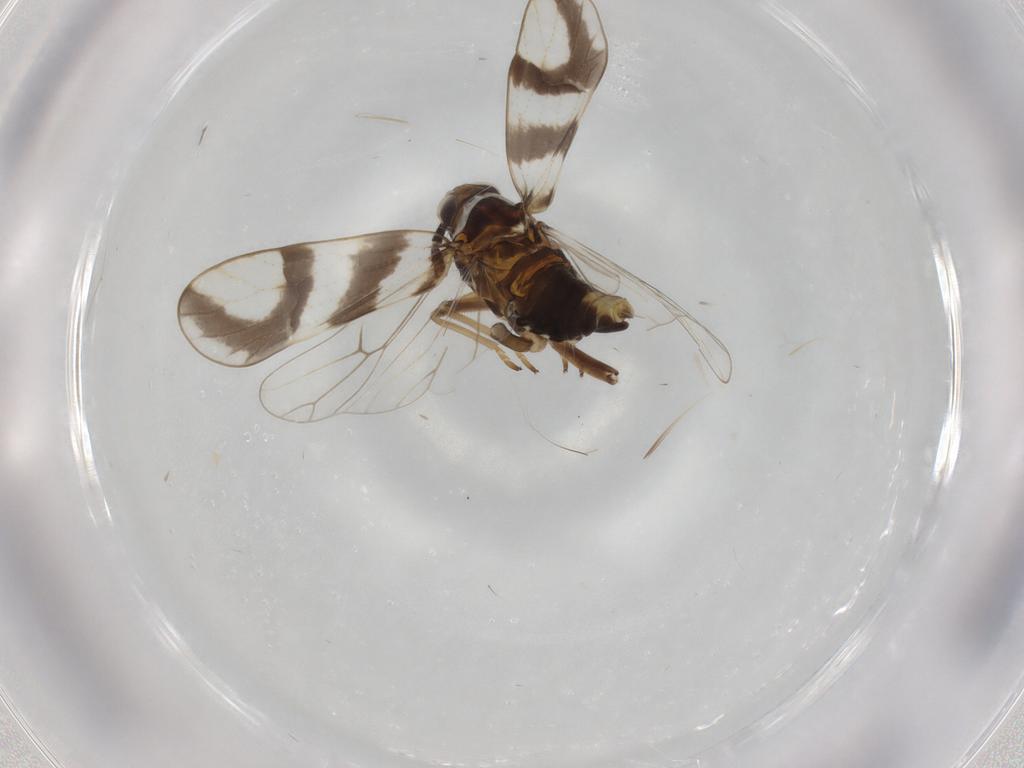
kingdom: Animalia
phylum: Arthropoda
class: Insecta
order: Hemiptera
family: Delphacidae
